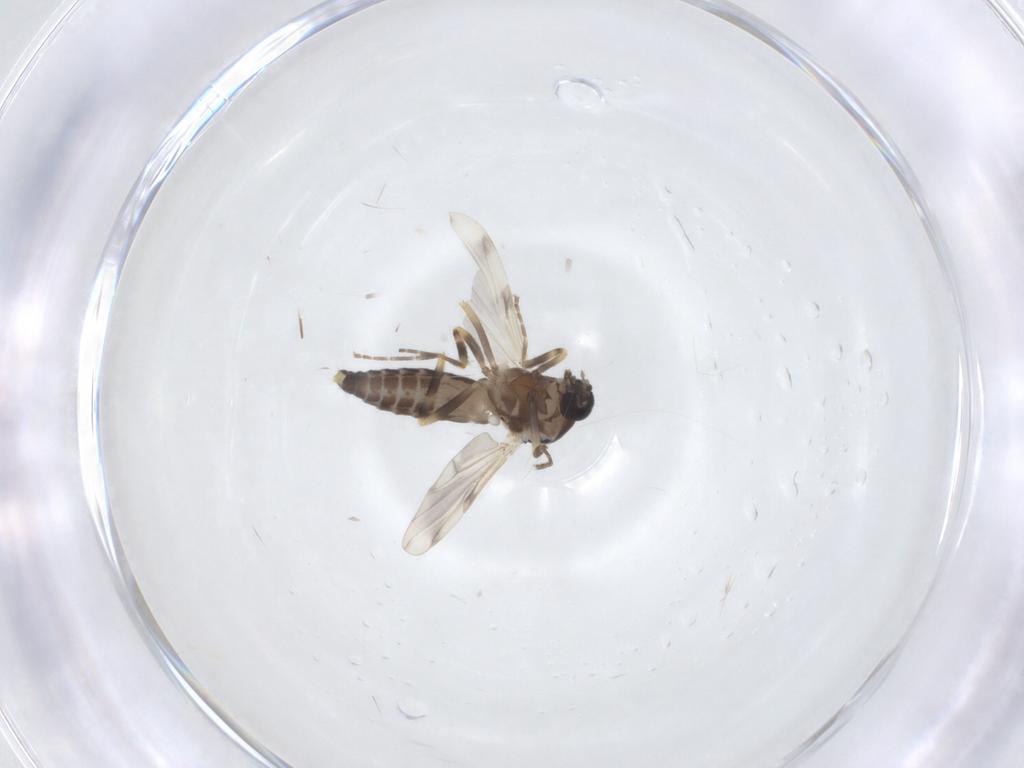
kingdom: Animalia
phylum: Arthropoda
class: Insecta
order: Diptera
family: Ceratopogonidae
